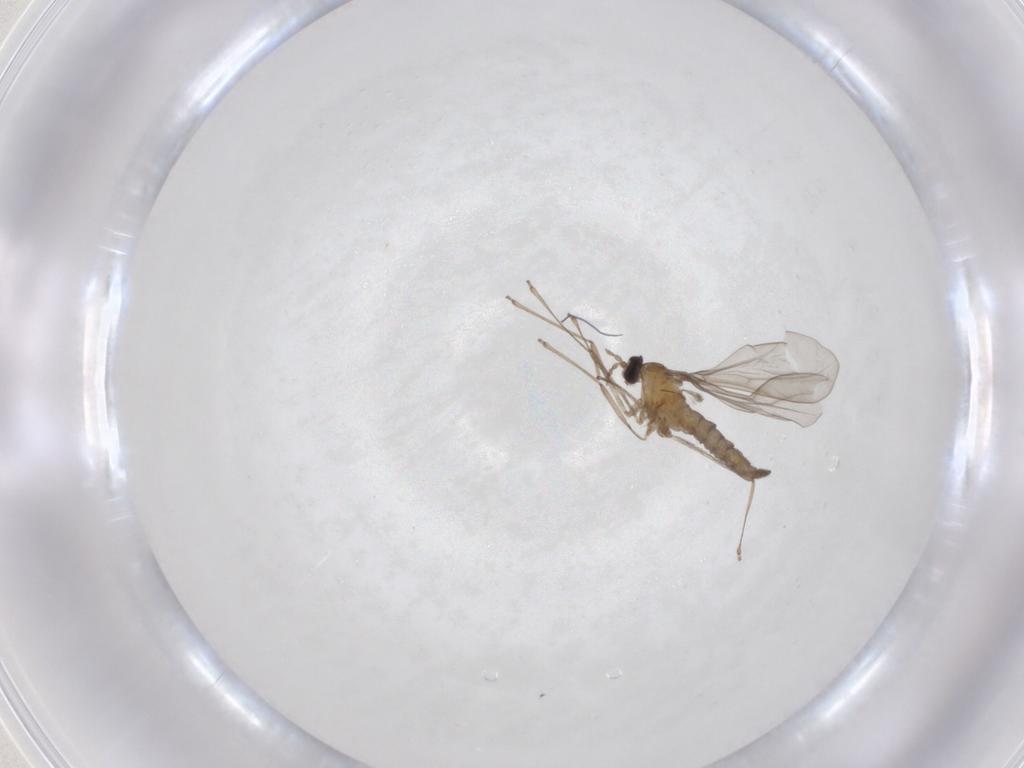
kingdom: Animalia
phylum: Arthropoda
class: Insecta
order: Diptera
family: Cecidomyiidae
